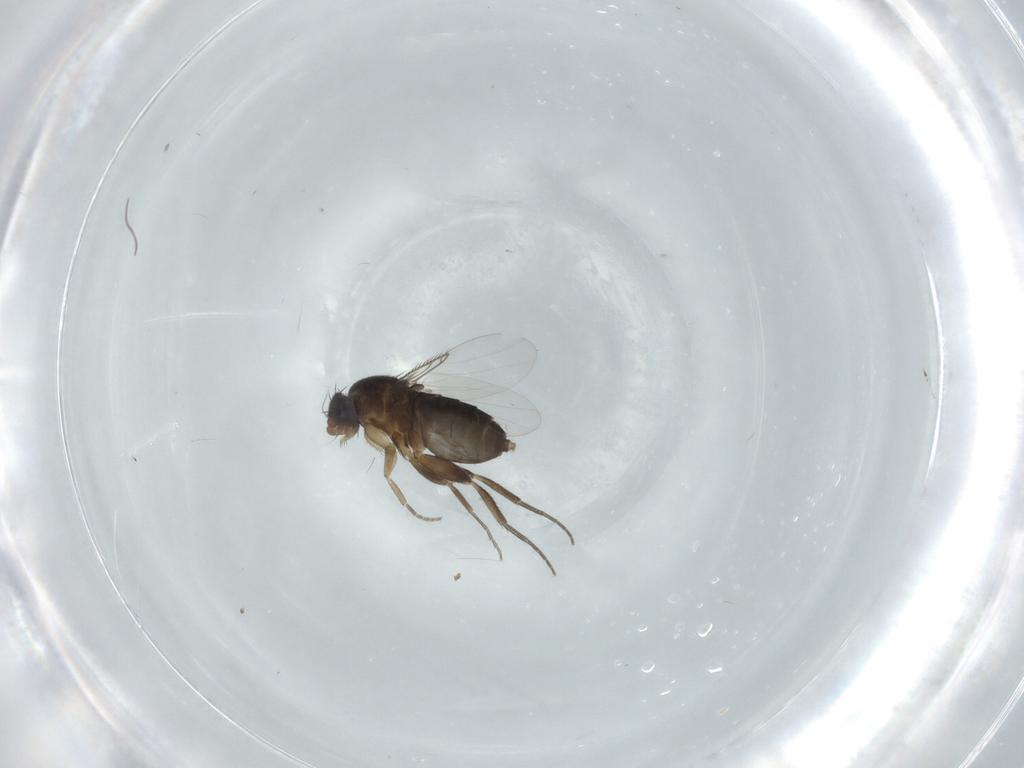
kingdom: Animalia
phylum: Arthropoda
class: Insecta
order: Diptera
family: Phoridae
